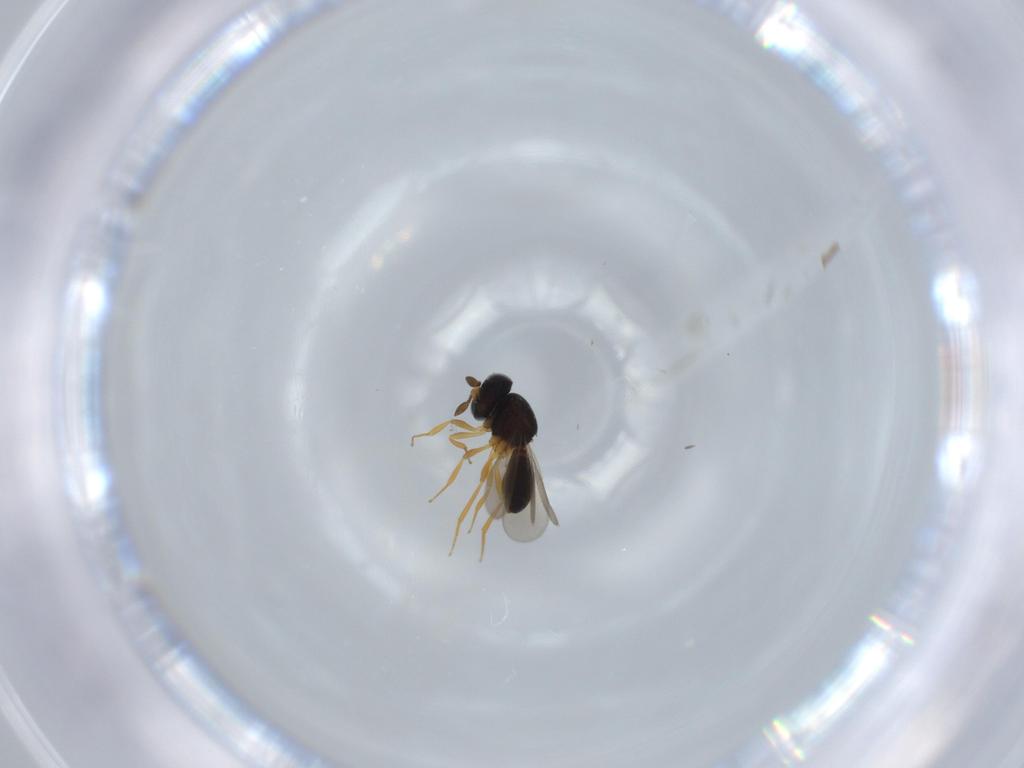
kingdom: Animalia
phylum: Arthropoda
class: Insecta
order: Hymenoptera
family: Scelionidae
